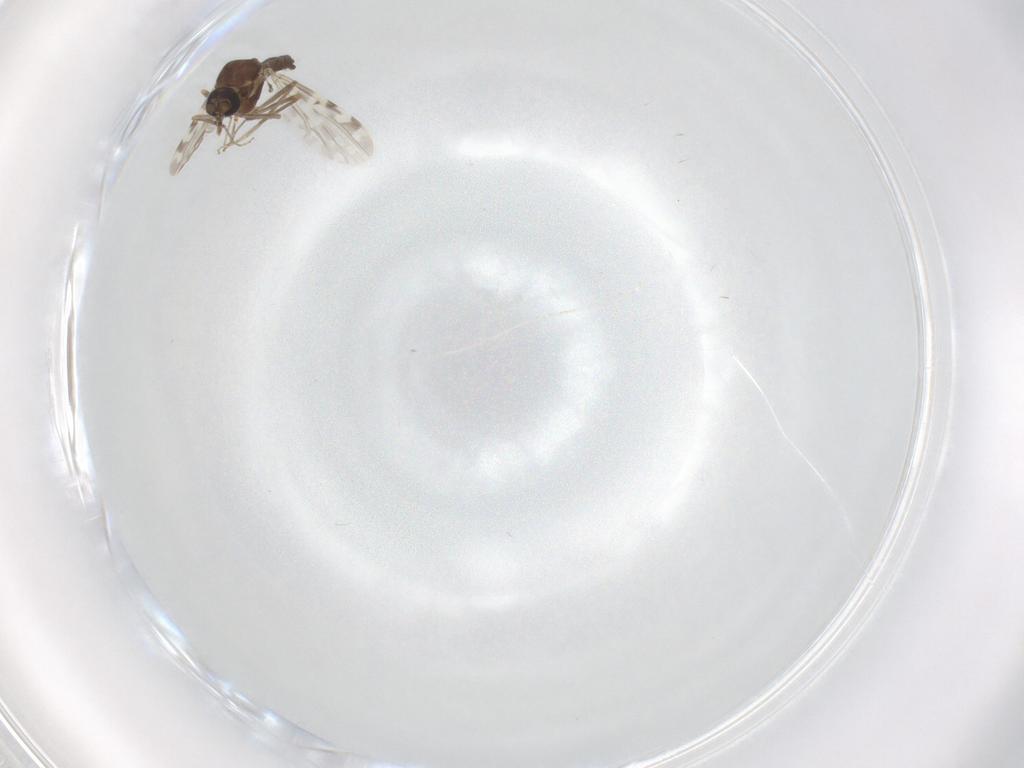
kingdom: Animalia
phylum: Arthropoda
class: Insecta
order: Diptera
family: Ceratopogonidae
